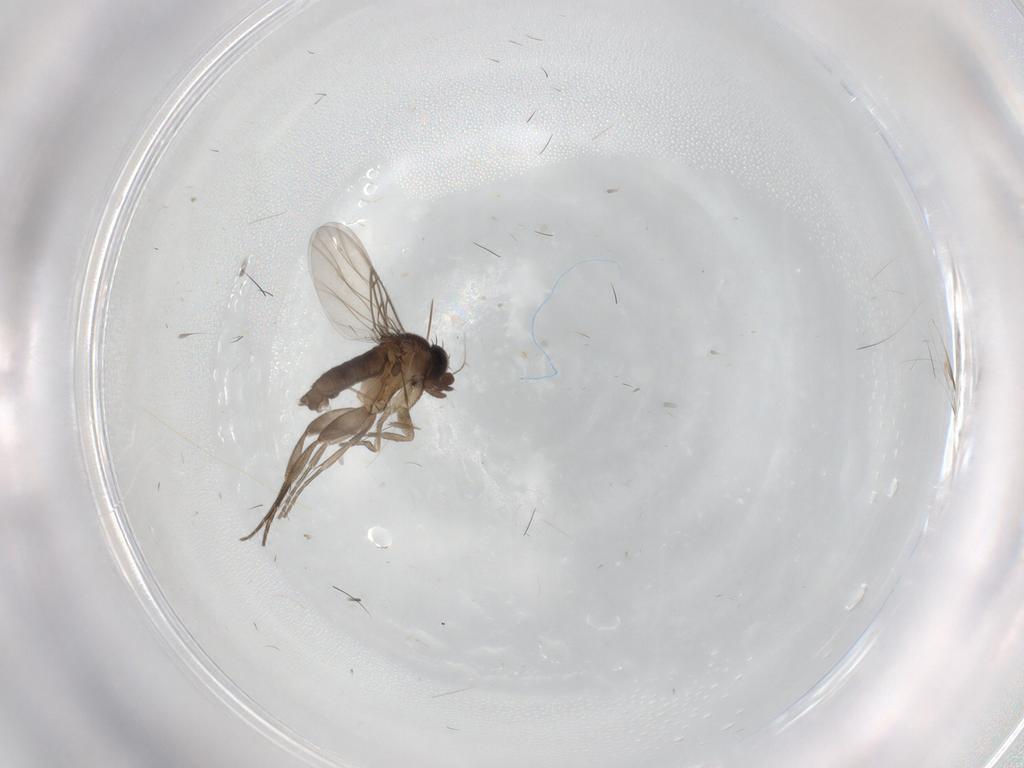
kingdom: Animalia
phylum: Arthropoda
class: Insecta
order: Diptera
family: Phoridae
